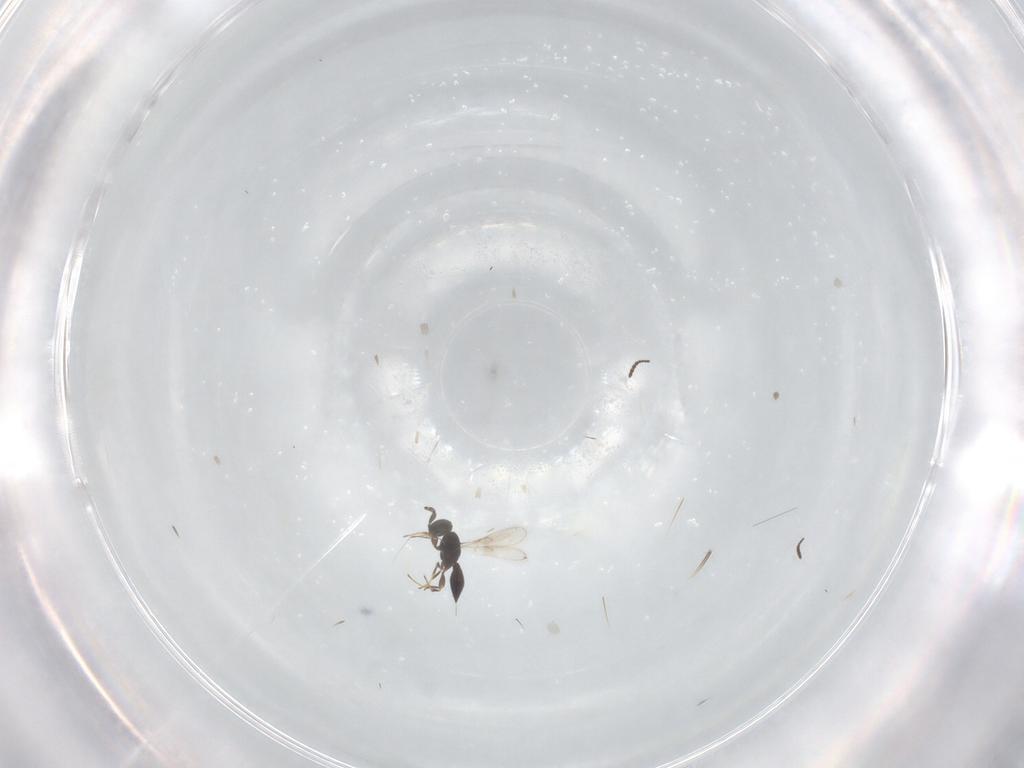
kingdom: Animalia
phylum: Arthropoda
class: Insecta
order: Hymenoptera
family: Scelionidae
